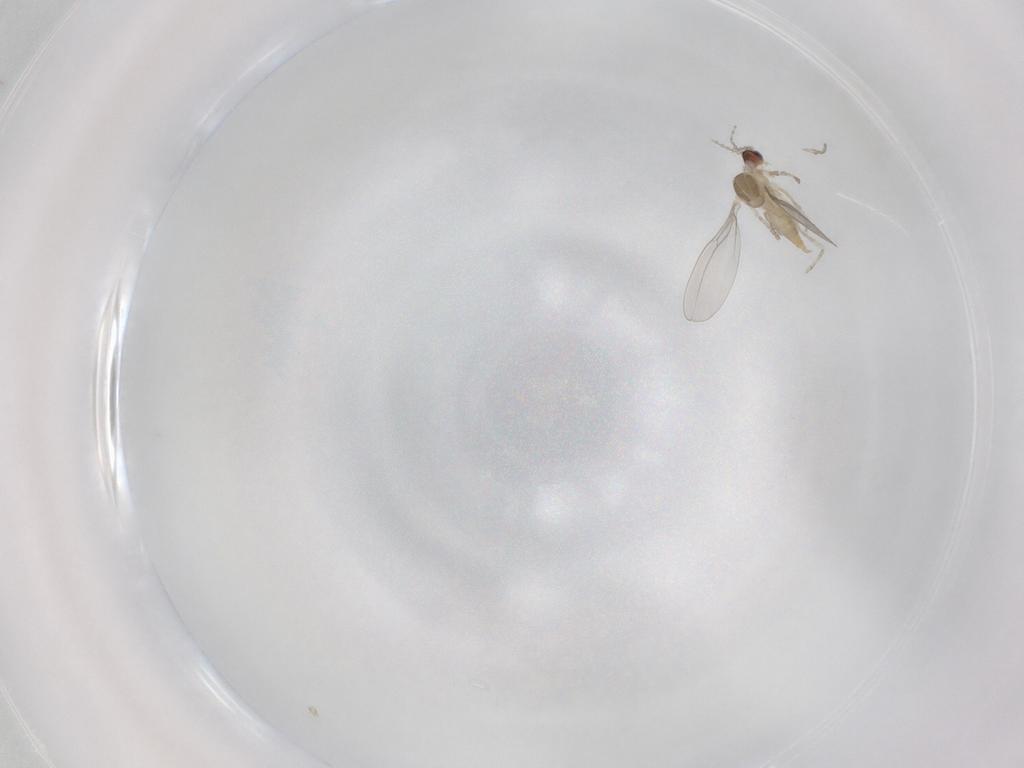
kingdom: Animalia
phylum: Arthropoda
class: Insecta
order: Diptera
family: Cecidomyiidae
